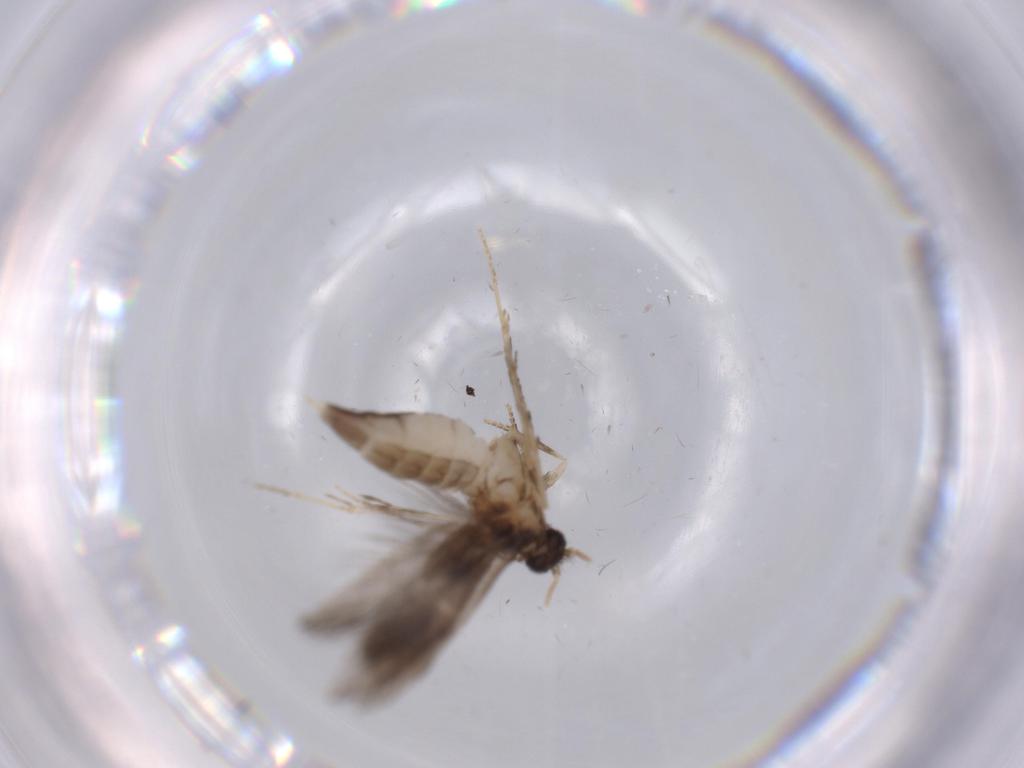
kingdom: Animalia
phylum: Arthropoda
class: Insecta
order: Trichoptera
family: Hydroptilidae
